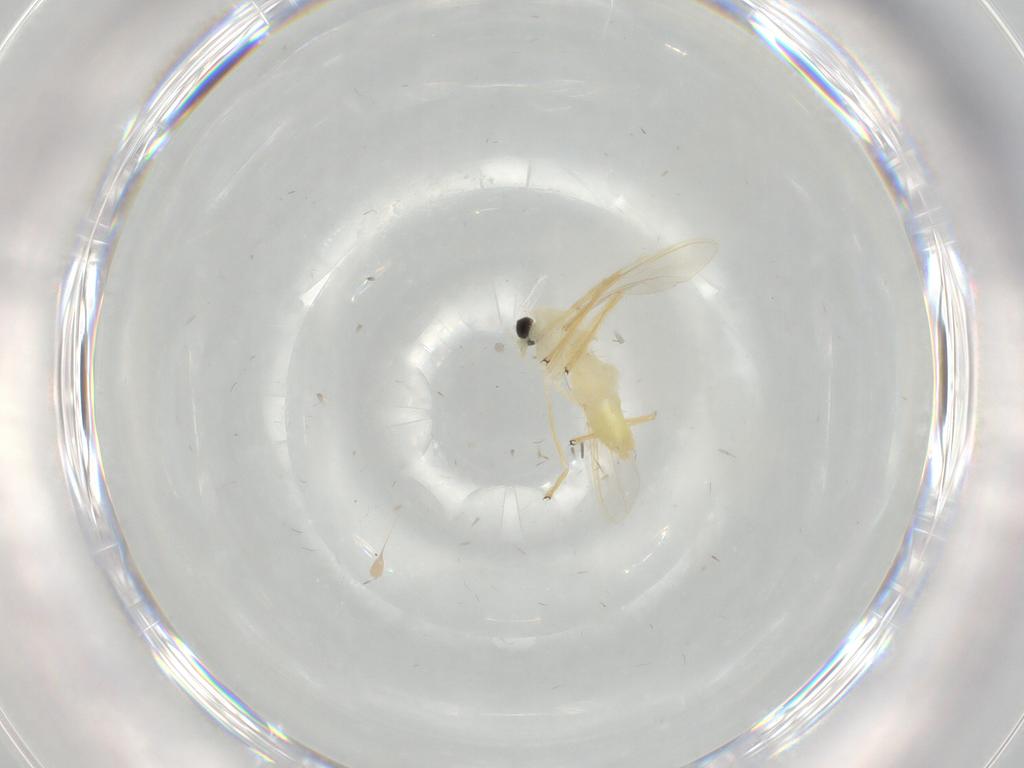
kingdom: Animalia
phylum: Arthropoda
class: Insecta
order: Diptera
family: Chironomidae
